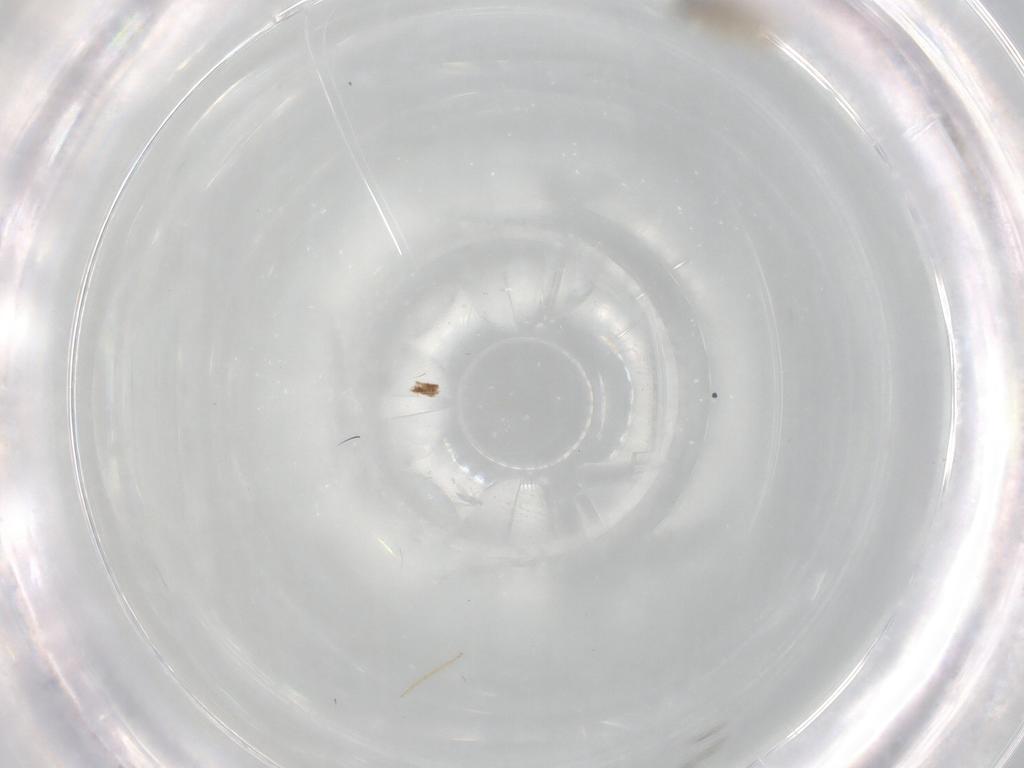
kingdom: Animalia
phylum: Arthropoda
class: Insecta
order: Diptera
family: Cecidomyiidae
